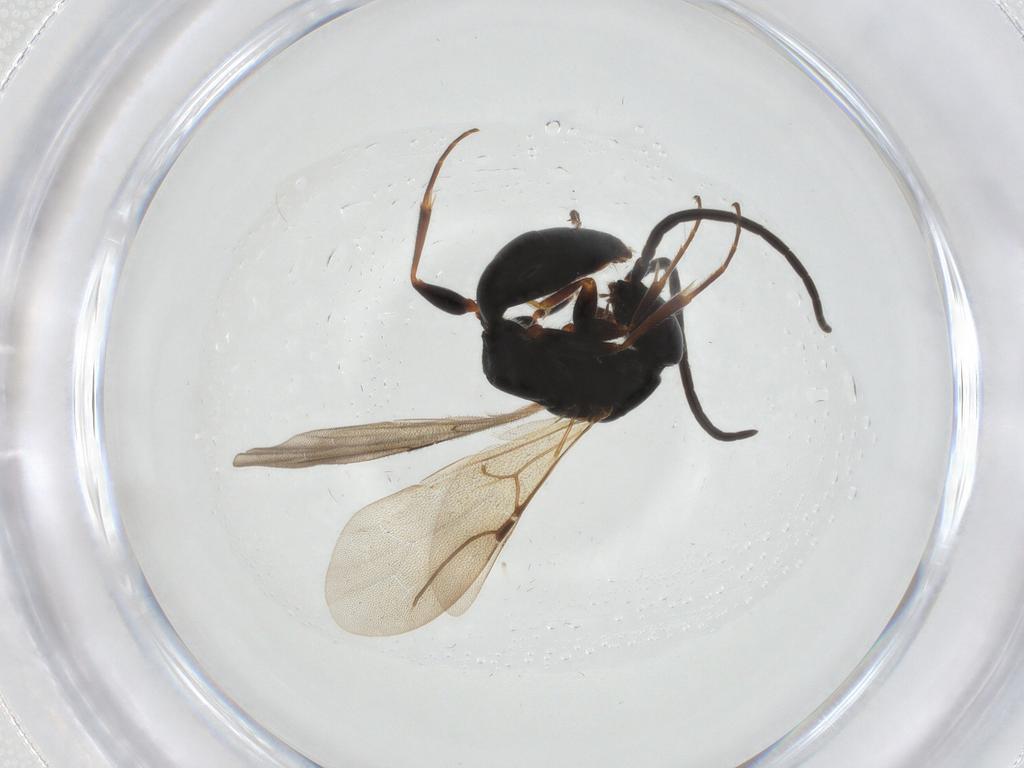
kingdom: Animalia
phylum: Arthropoda
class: Insecta
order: Hymenoptera
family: Bethylidae
